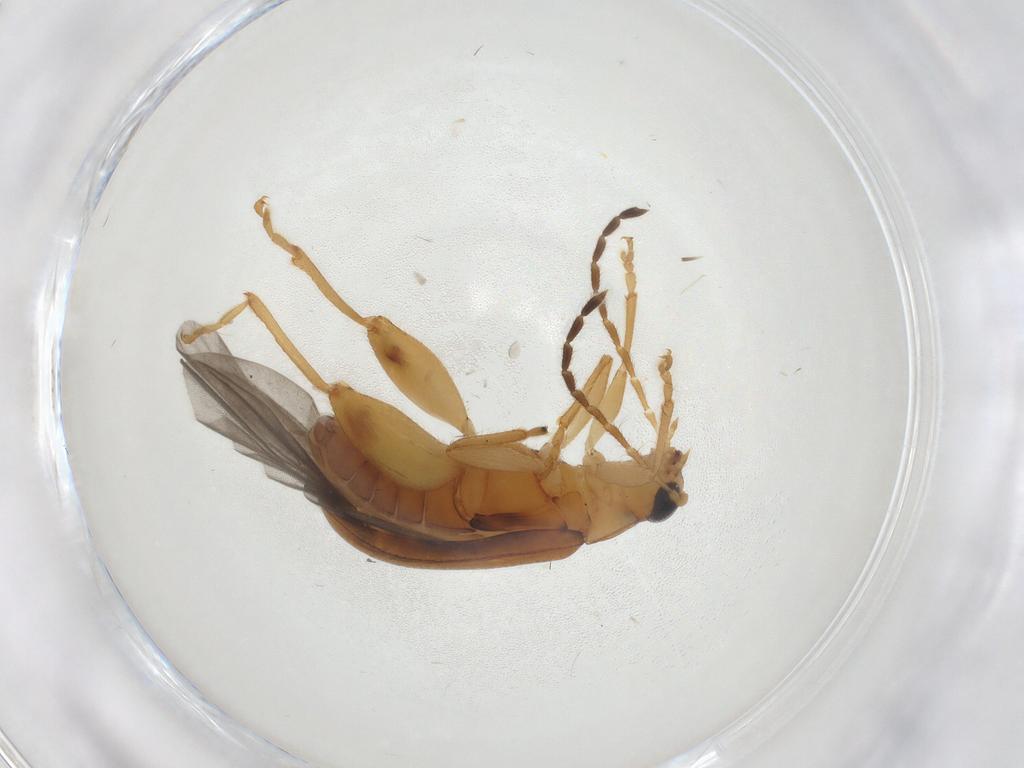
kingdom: Animalia
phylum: Arthropoda
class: Insecta
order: Coleoptera
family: Chrysomelidae
